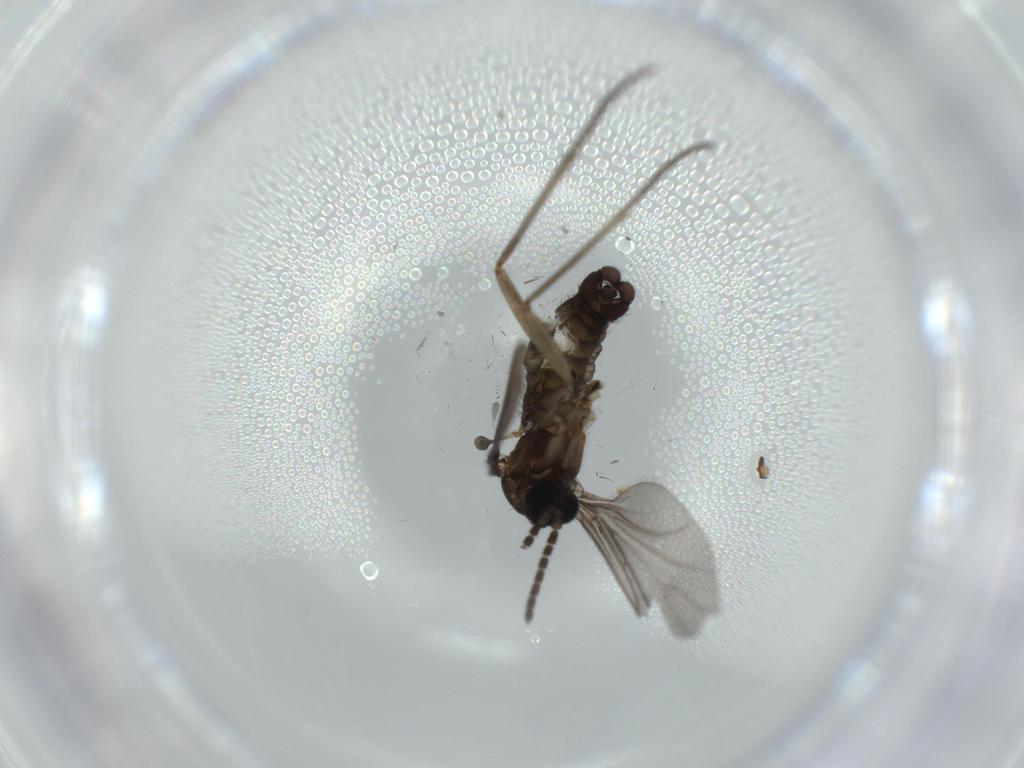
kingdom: Animalia
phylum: Arthropoda
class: Insecta
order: Diptera
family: Sciaridae
